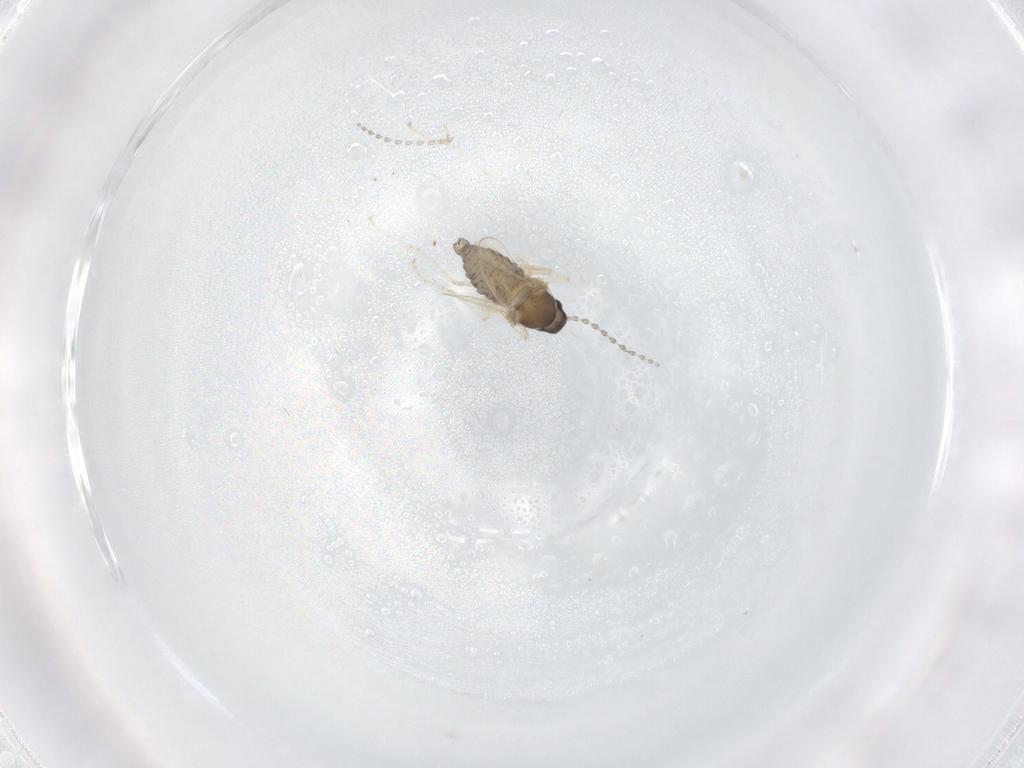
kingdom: Animalia
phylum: Arthropoda
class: Insecta
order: Diptera
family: Cecidomyiidae
